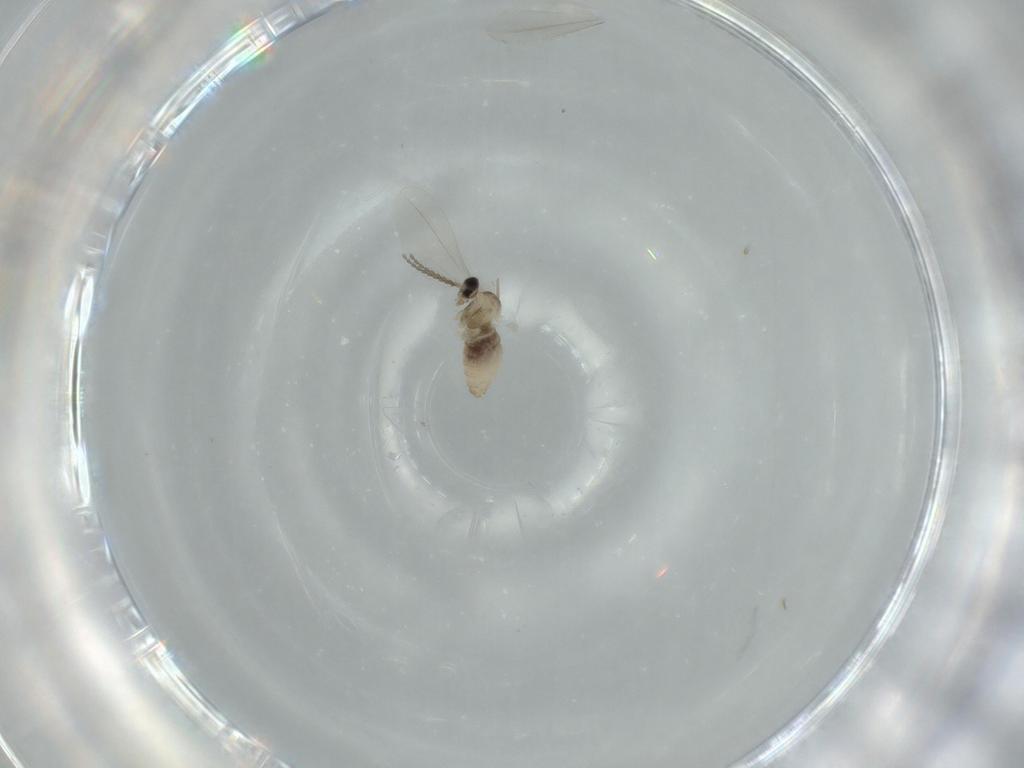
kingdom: Animalia
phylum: Arthropoda
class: Insecta
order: Diptera
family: Cecidomyiidae
